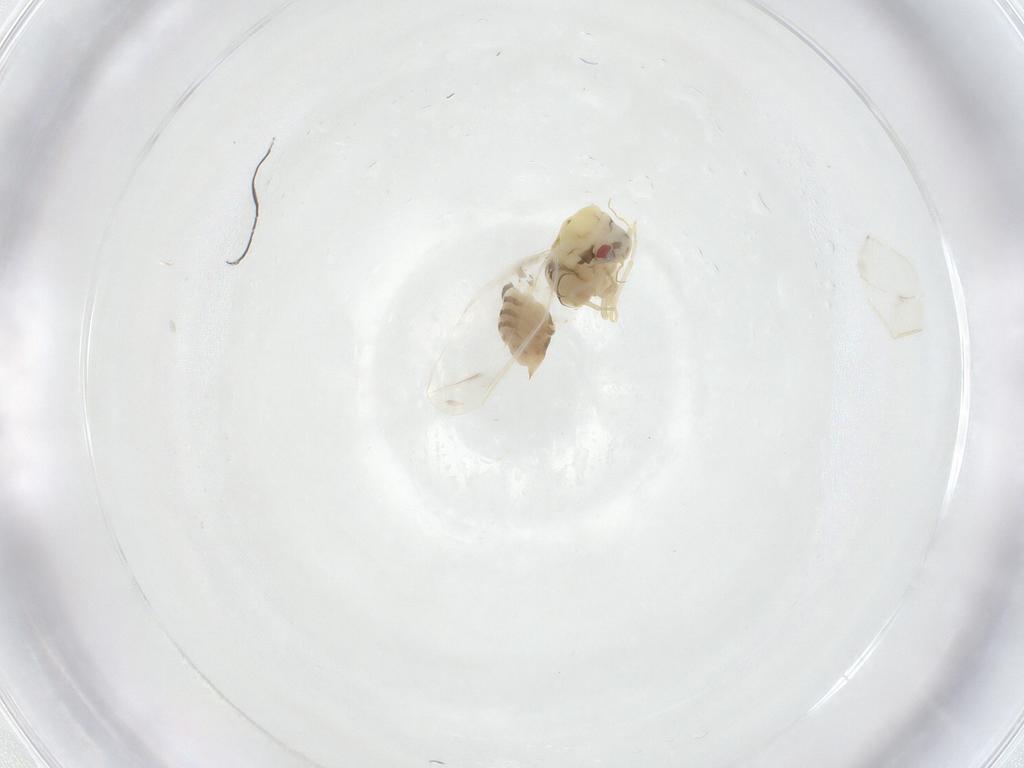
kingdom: Animalia
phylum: Arthropoda
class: Insecta
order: Hemiptera
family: Aleyrodidae
